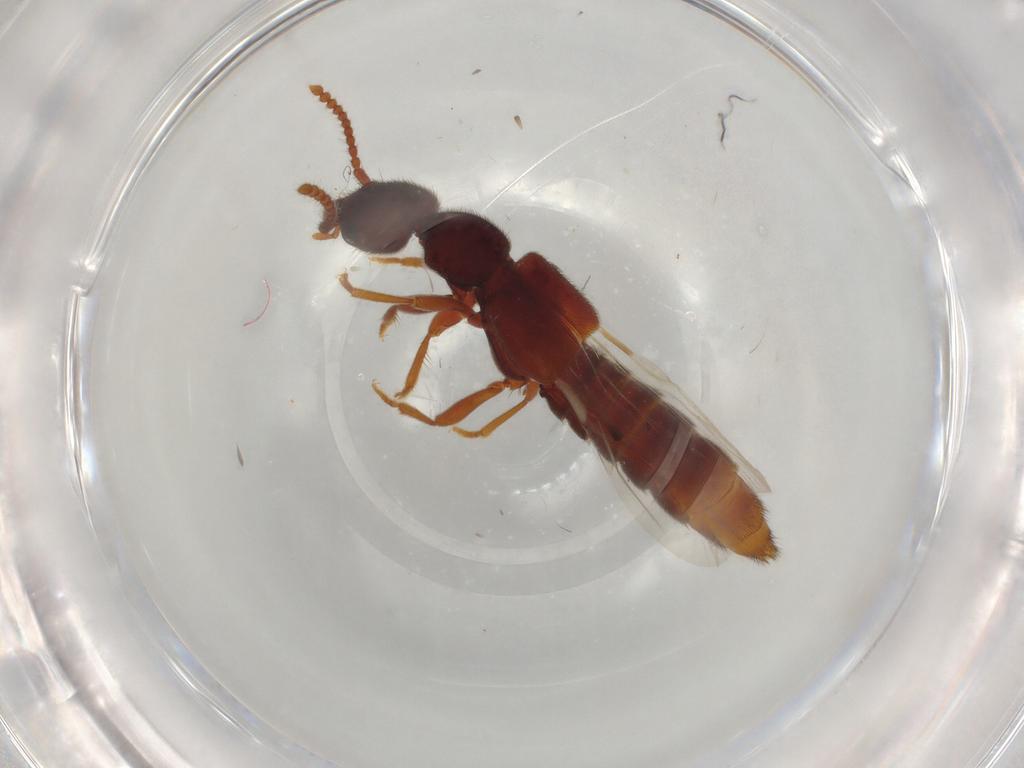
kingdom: Animalia
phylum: Arthropoda
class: Insecta
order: Coleoptera
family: Staphylinidae
